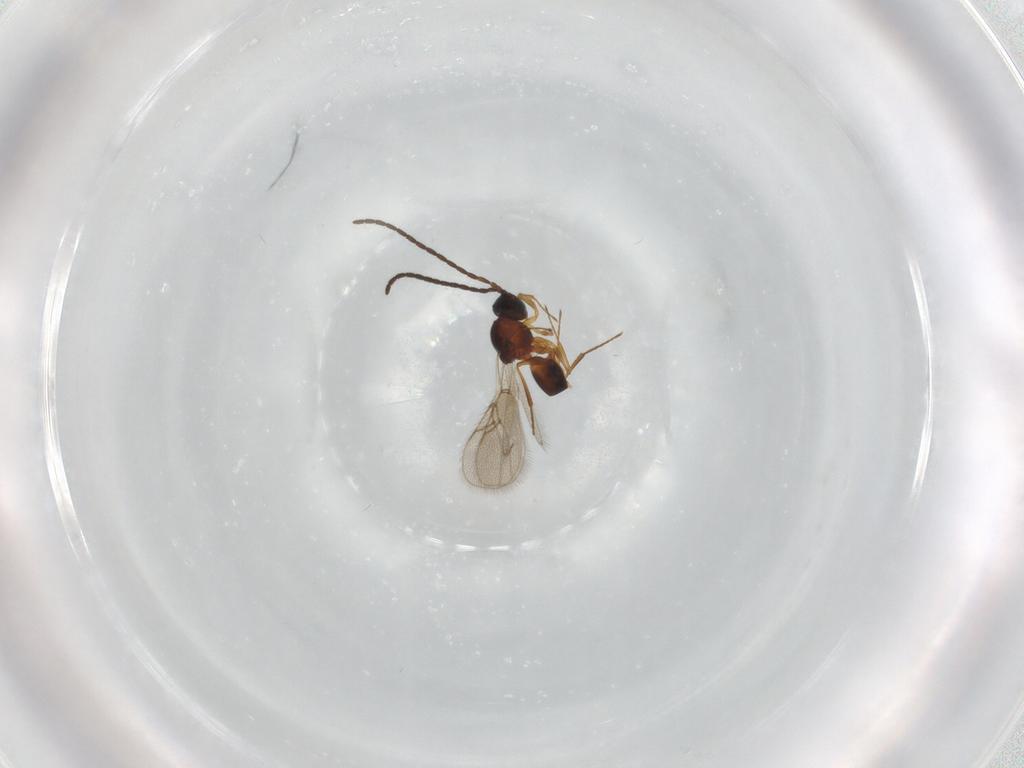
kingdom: Animalia
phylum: Arthropoda
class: Insecta
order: Hymenoptera
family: Figitidae
